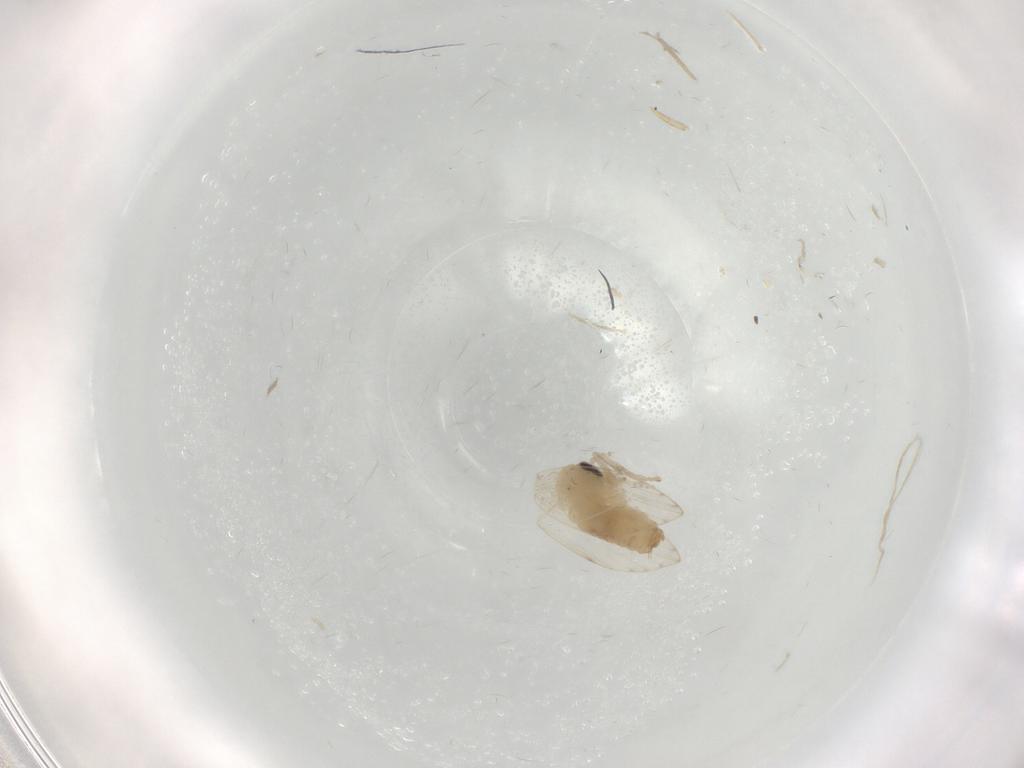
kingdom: Animalia
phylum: Arthropoda
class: Insecta
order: Diptera
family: Psychodidae
